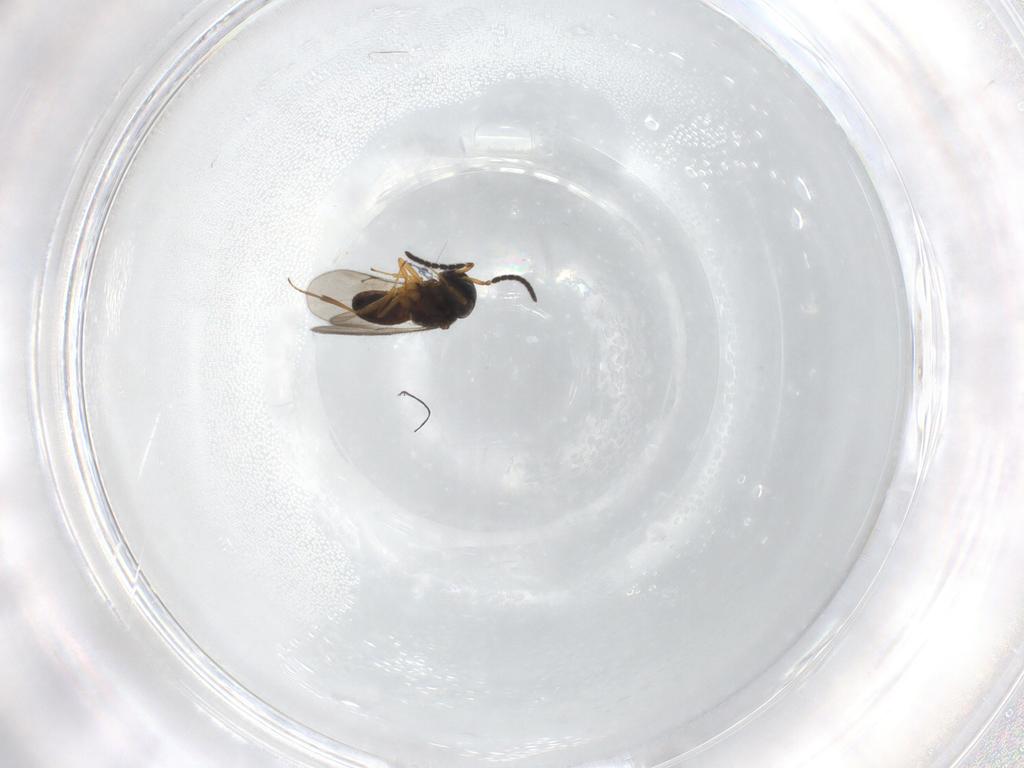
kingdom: Animalia
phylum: Arthropoda
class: Insecta
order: Hymenoptera
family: Scelionidae
